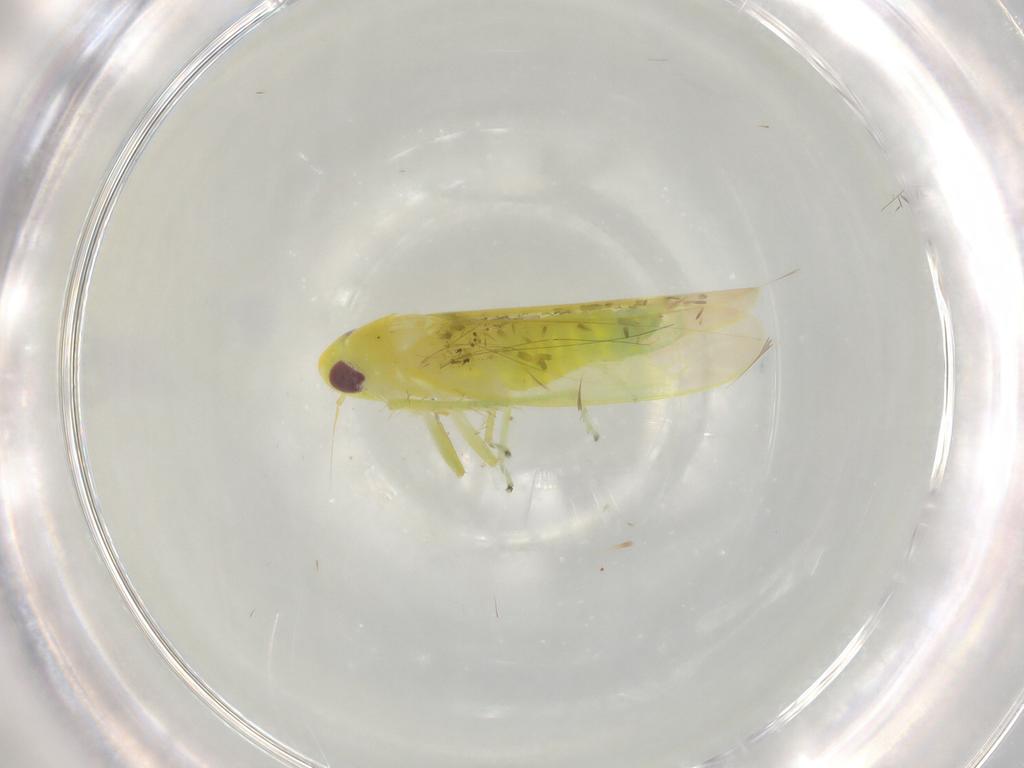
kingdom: Animalia
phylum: Arthropoda
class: Insecta
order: Hemiptera
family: Cicadellidae
